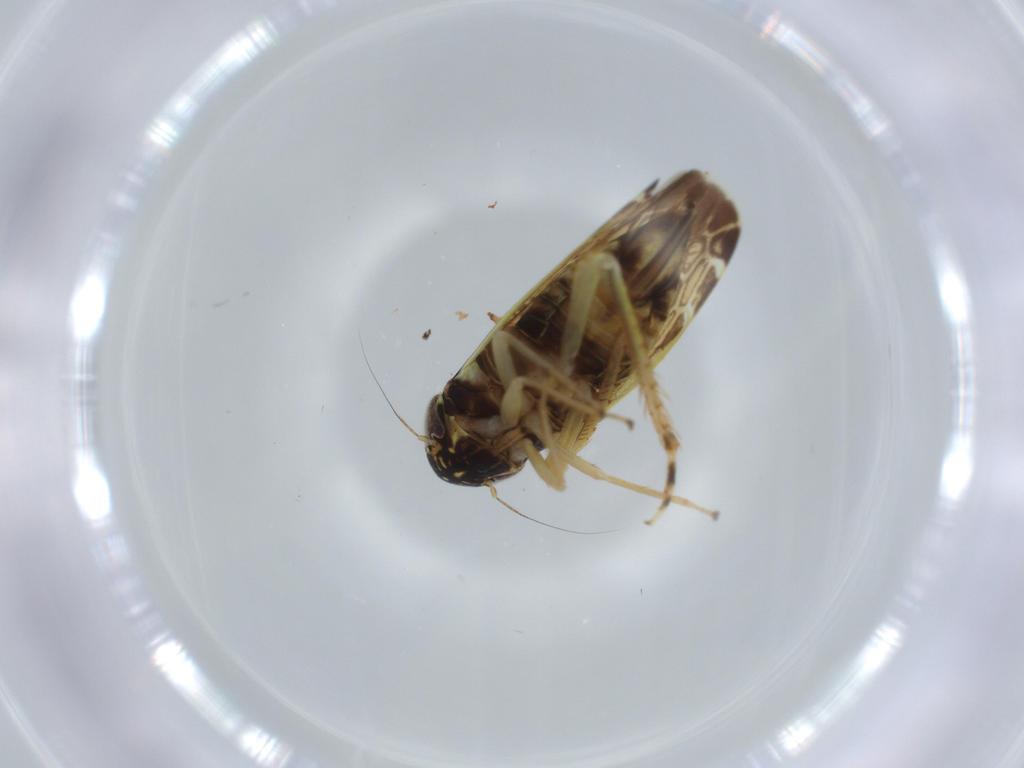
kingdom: Animalia
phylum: Arthropoda
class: Insecta
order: Hemiptera
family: Cicadellidae
